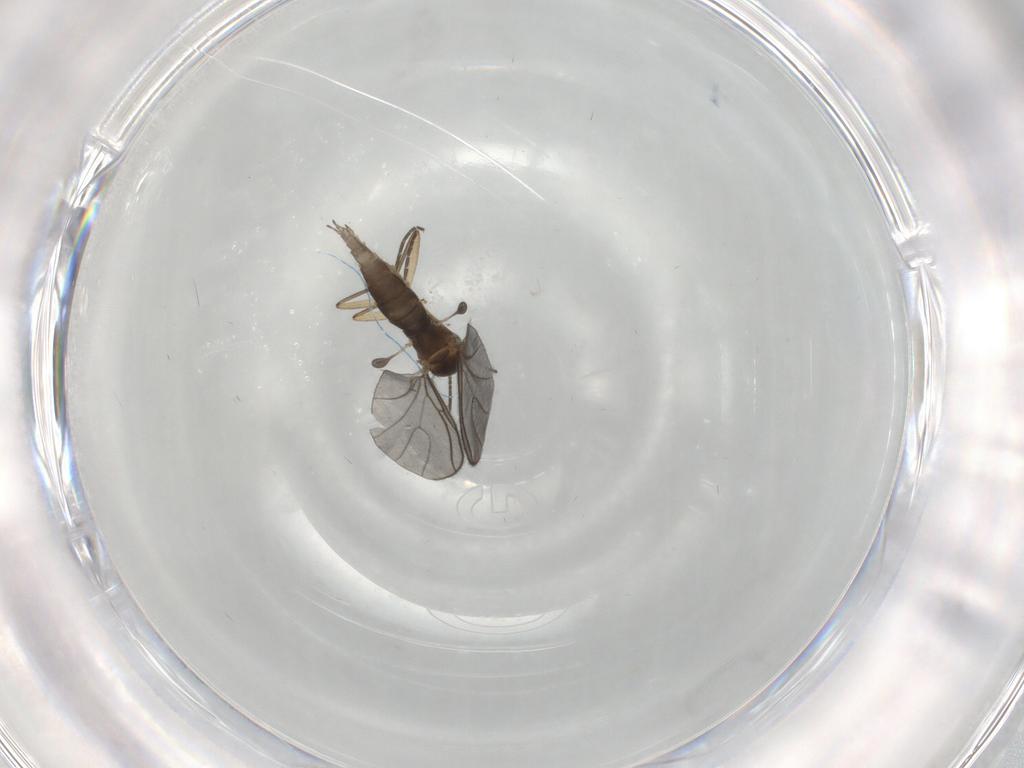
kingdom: Animalia
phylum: Arthropoda
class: Insecta
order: Diptera
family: Sciaridae
